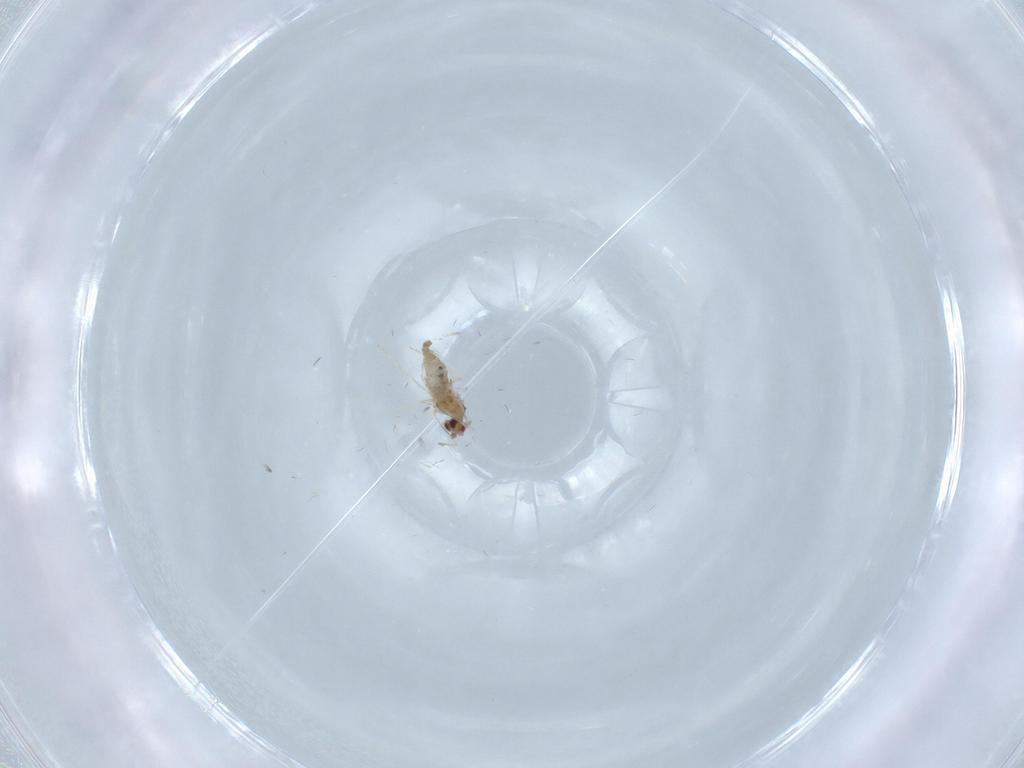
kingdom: Animalia
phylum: Arthropoda
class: Insecta
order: Diptera
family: Cecidomyiidae
